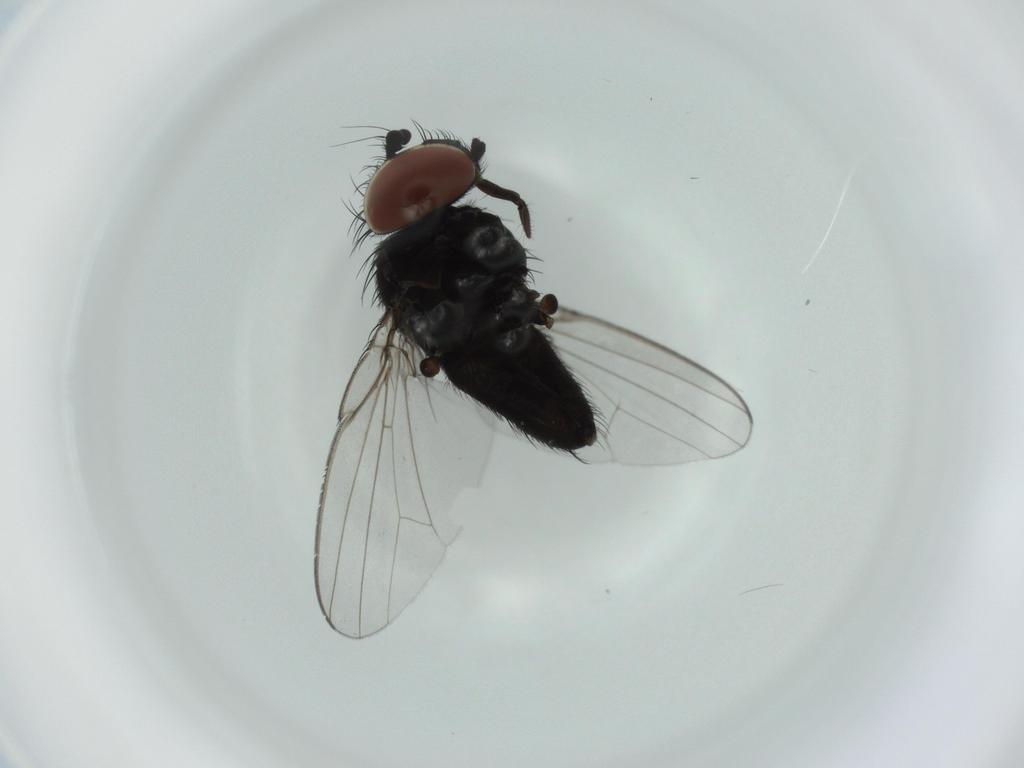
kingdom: Animalia
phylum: Arthropoda
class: Insecta
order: Diptera
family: Milichiidae
